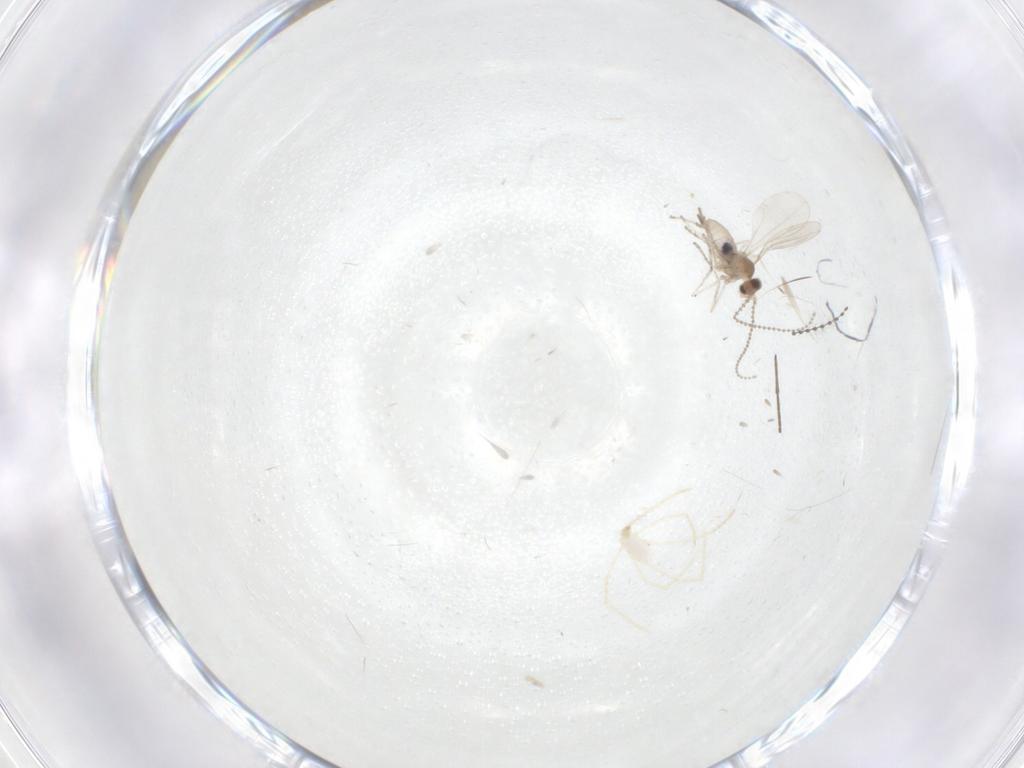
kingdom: Animalia
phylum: Arthropoda
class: Insecta
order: Diptera
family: Cecidomyiidae
